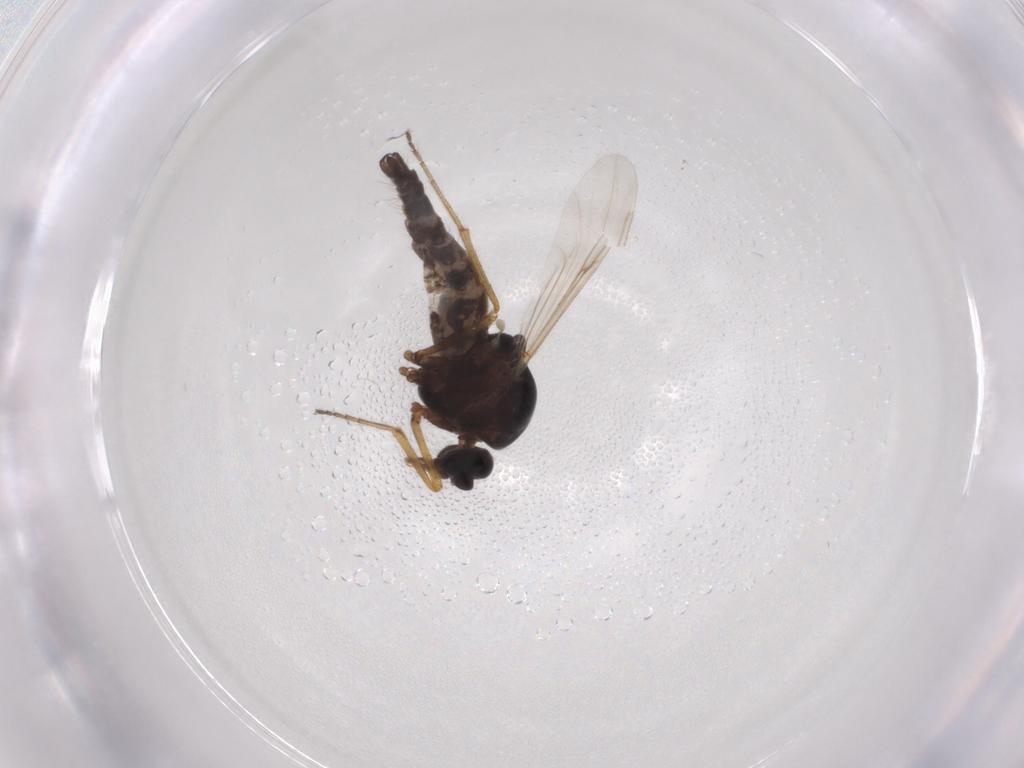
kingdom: Animalia
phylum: Arthropoda
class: Insecta
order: Diptera
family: Ceratopogonidae
